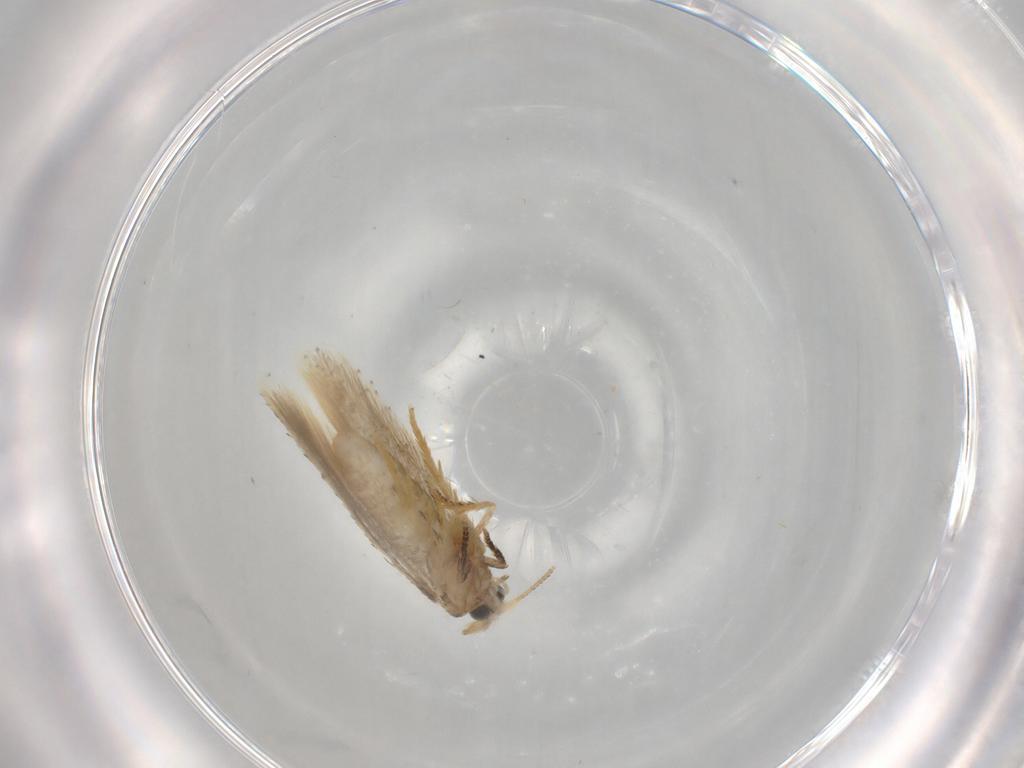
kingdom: Animalia
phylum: Arthropoda
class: Insecta
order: Lepidoptera
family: Nepticulidae
